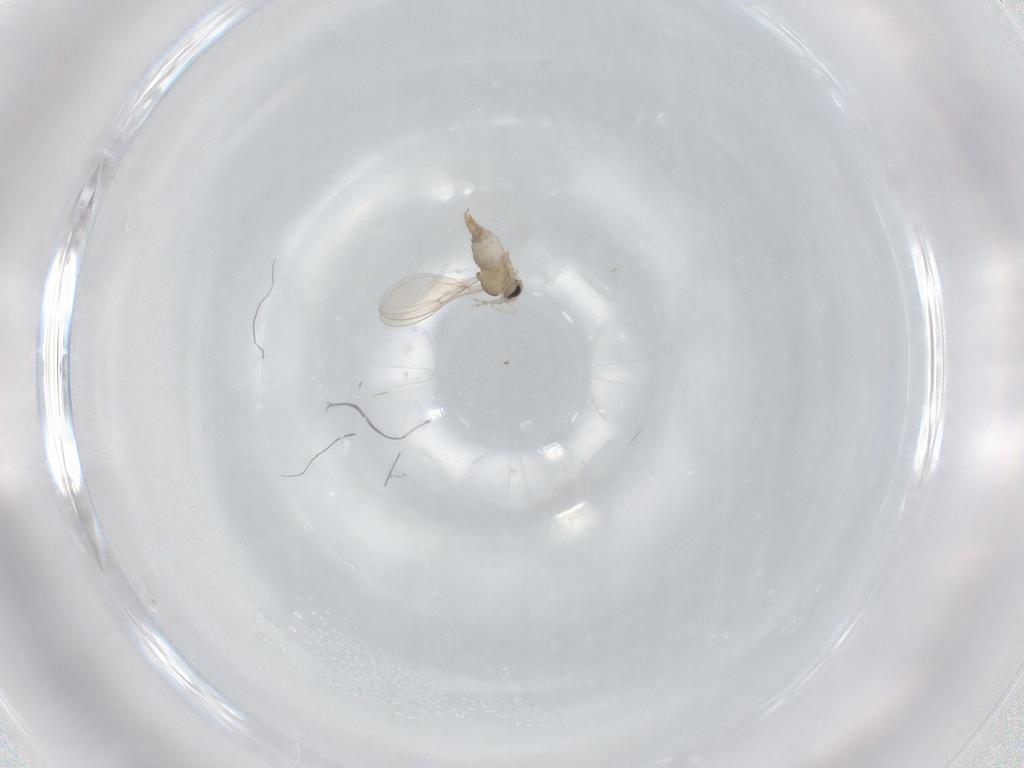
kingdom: Animalia
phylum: Arthropoda
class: Insecta
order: Diptera
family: Cecidomyiidae
